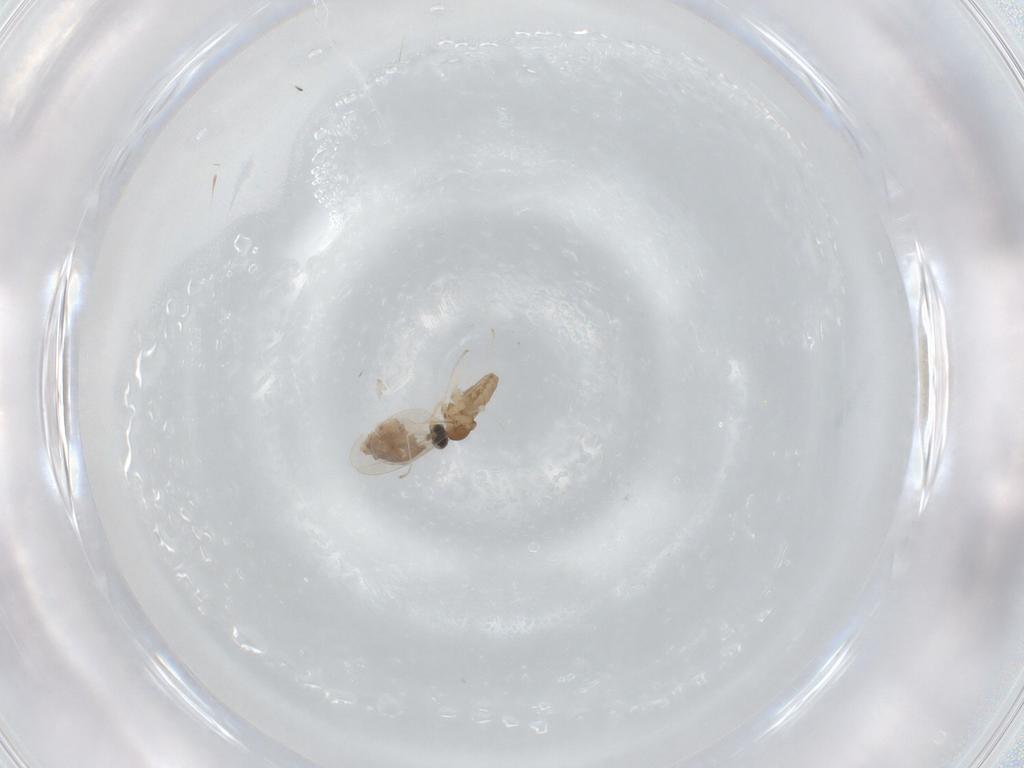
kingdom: Animalia
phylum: Arthropoda
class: Insecta
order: Diptera
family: Cecidomyiidae
